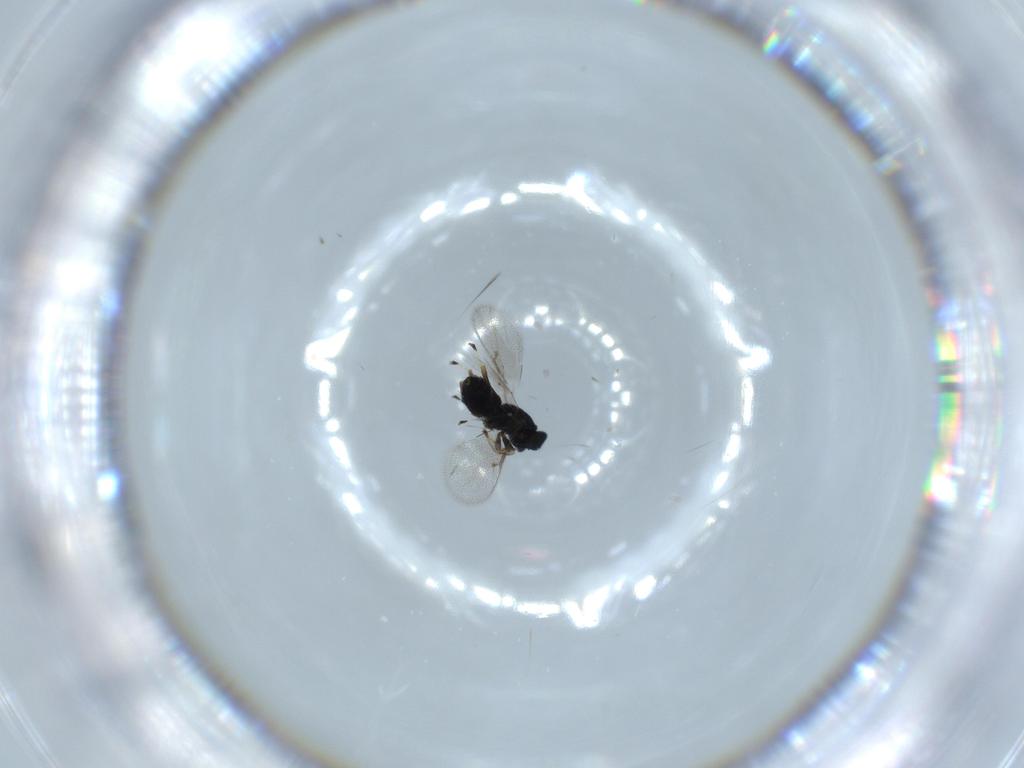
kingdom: Animalia
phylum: Arthropoda
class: Insecta
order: Hymenoptera
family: Eulophidae
